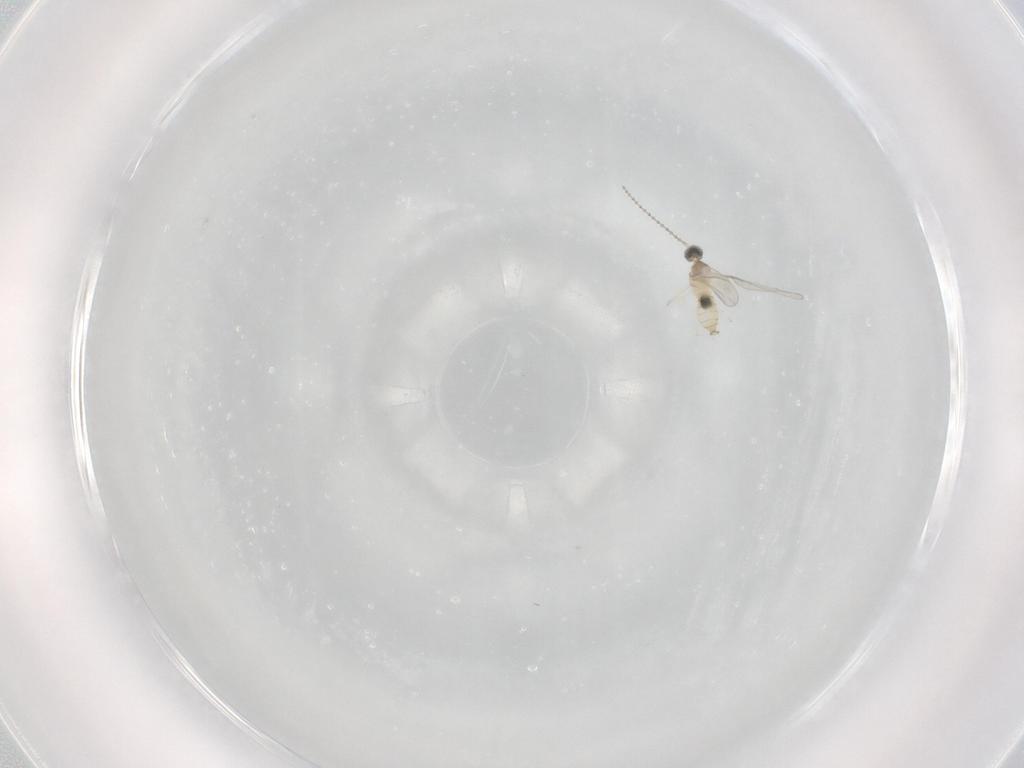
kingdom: Animalia
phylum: Arthropoda
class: Insecta
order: Diptera
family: Cecidomyiidae
